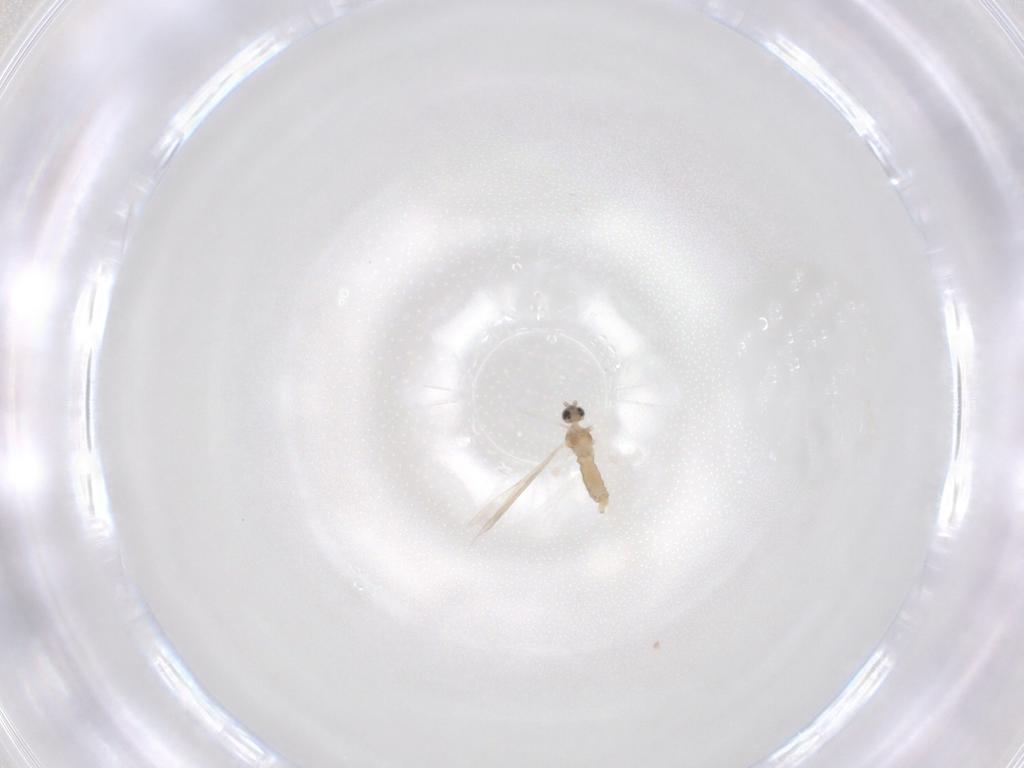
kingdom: Animalia
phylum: Arthropoda
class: Insecta
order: Diptera
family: Cecidomyiidae
